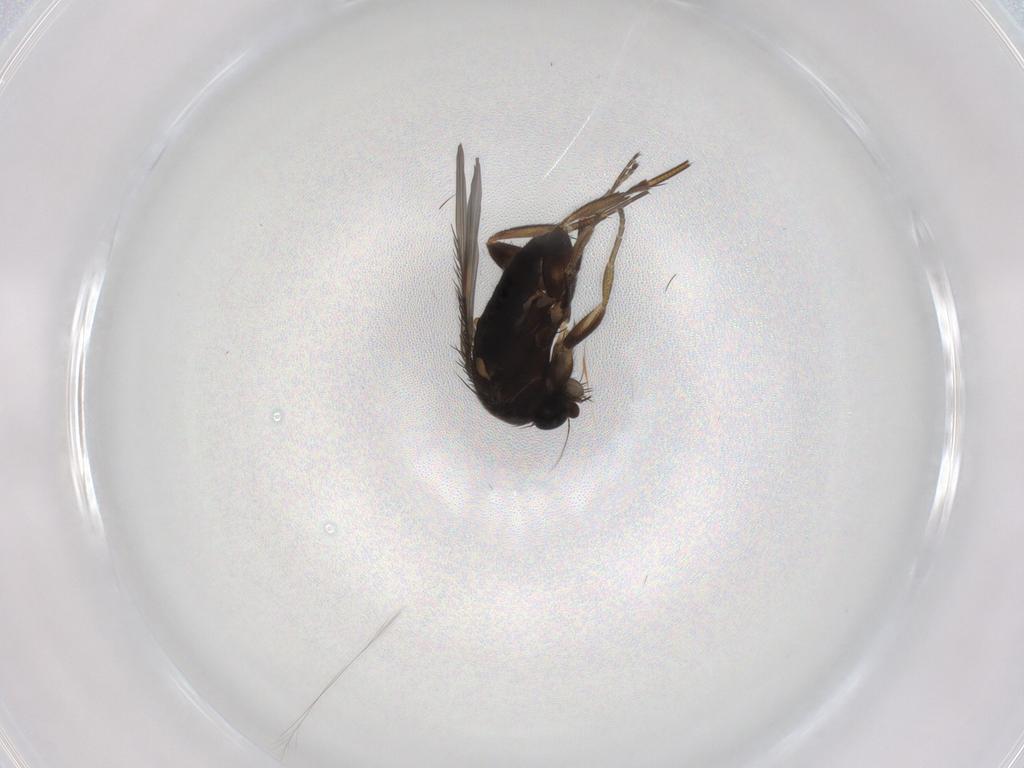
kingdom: Animalia
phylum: Arthropoda
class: Insecta
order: Diptera
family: Phoridae
